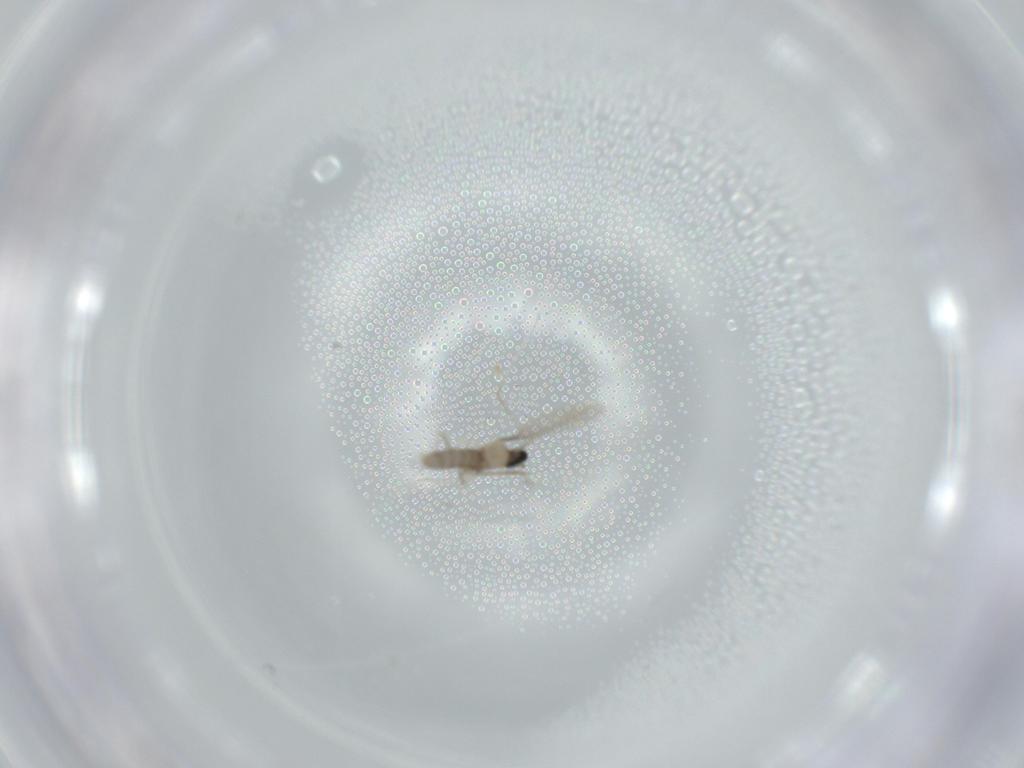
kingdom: Animalia
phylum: Arthropoda
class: Insecta
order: Diptera
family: Cecidomyiidae
